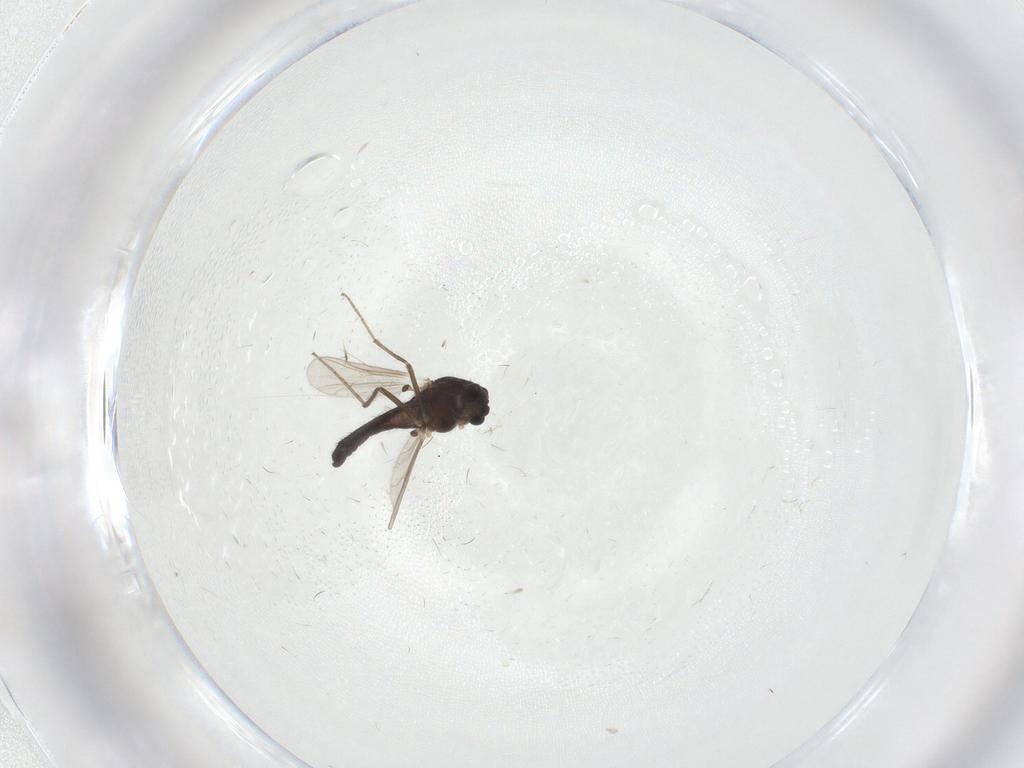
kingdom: Animalia
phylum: Arthropoda
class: Insecta
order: Diptera
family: Chironomidae
